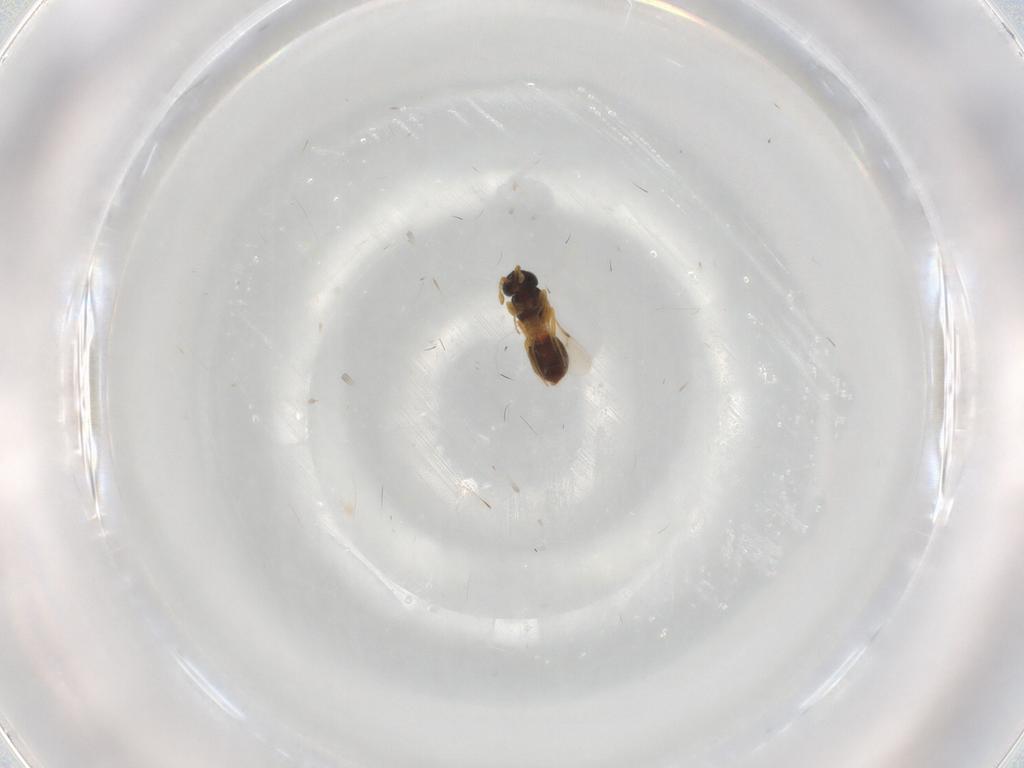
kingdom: Animalia
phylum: Arthropoda
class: Insecta
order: Hymenoptera
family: Scelionidae
